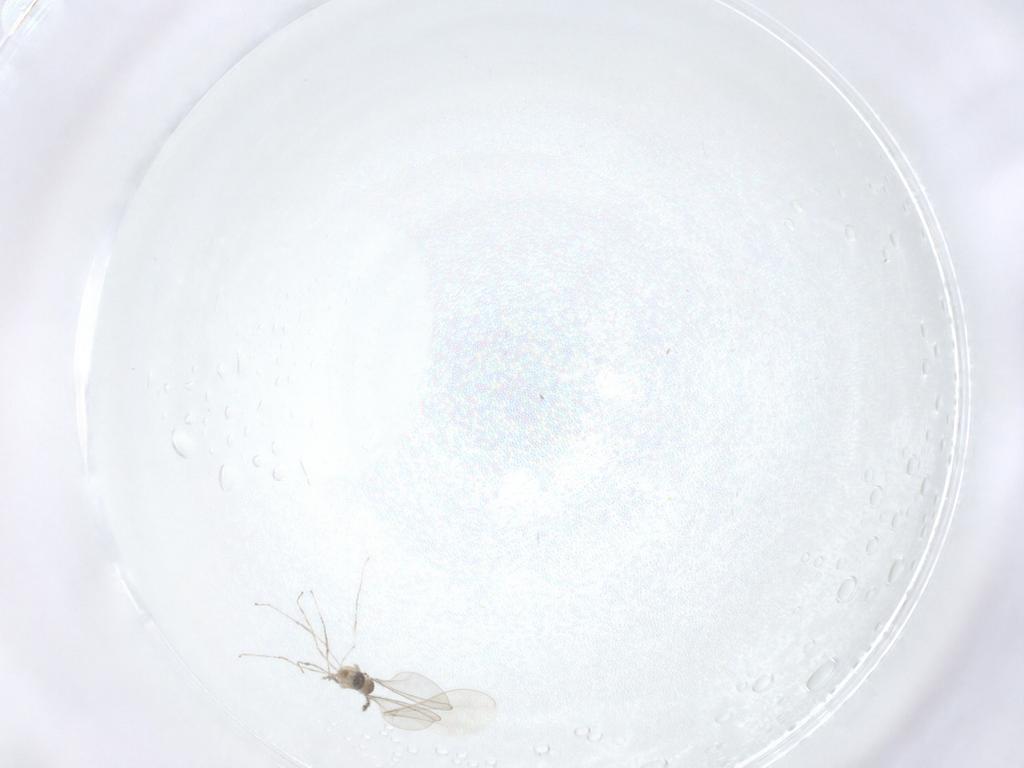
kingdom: Animalia
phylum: Arthropoda
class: Insecta
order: Diptera
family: Cecidomyiidae
